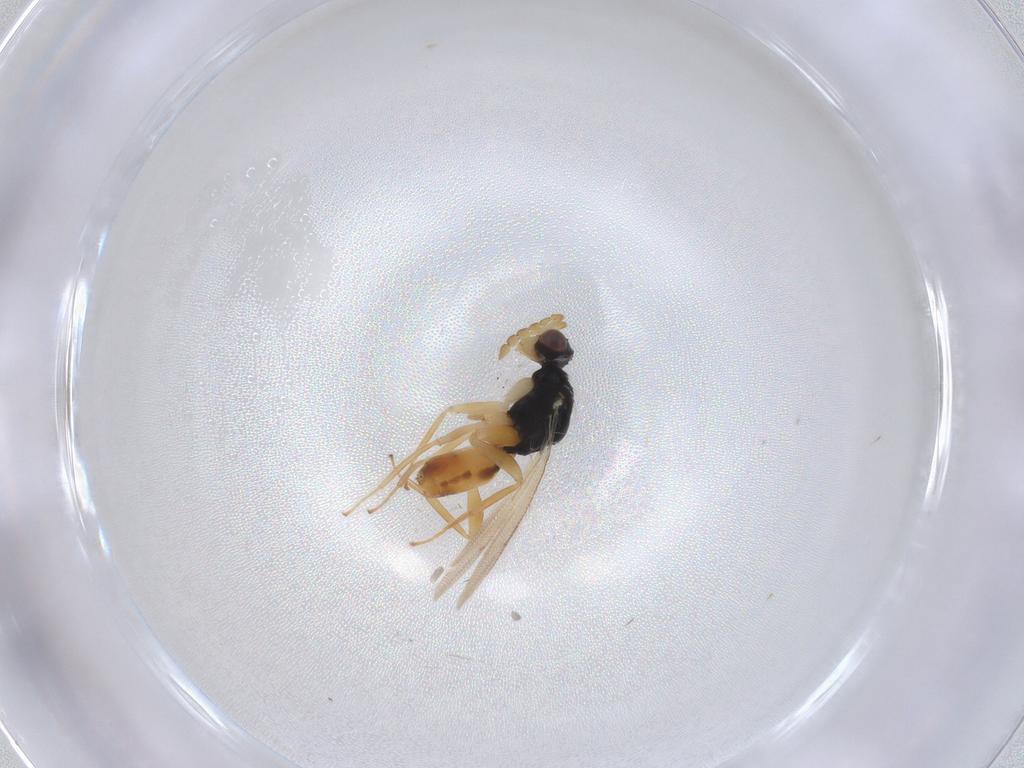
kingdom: Animalia
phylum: Arthropoda
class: Insecta
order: Hymenoptera
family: Eulophidae
